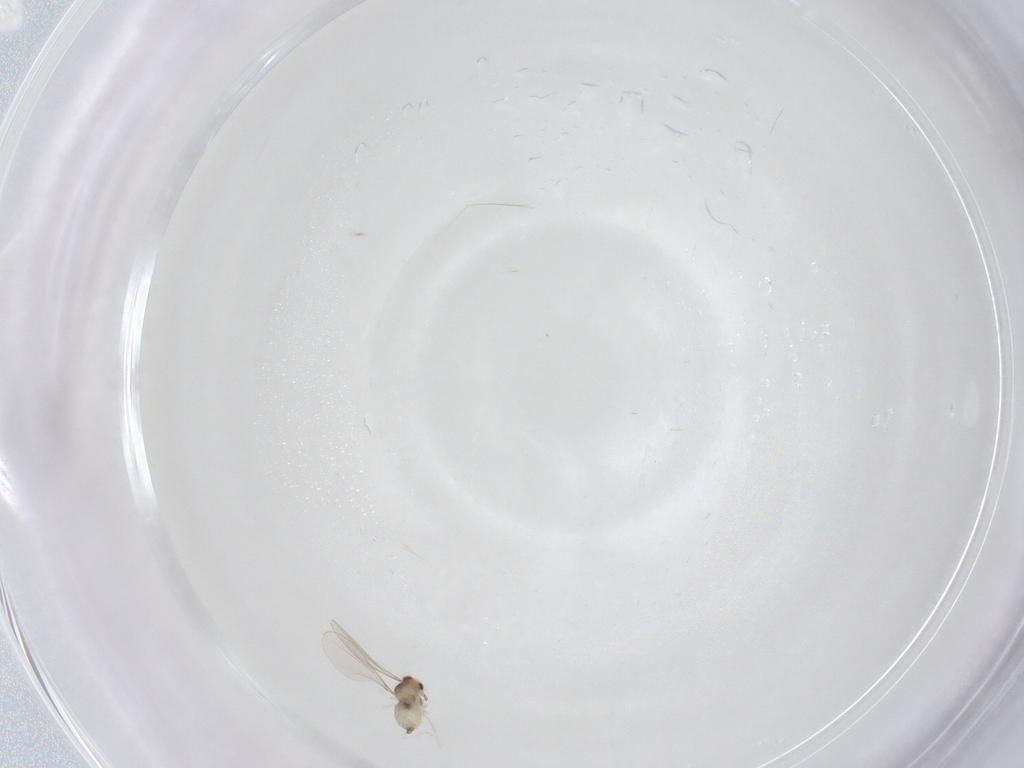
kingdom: Animalia
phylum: Arthropoda
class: Insecta
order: Diptera
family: Cecidomyiidae
